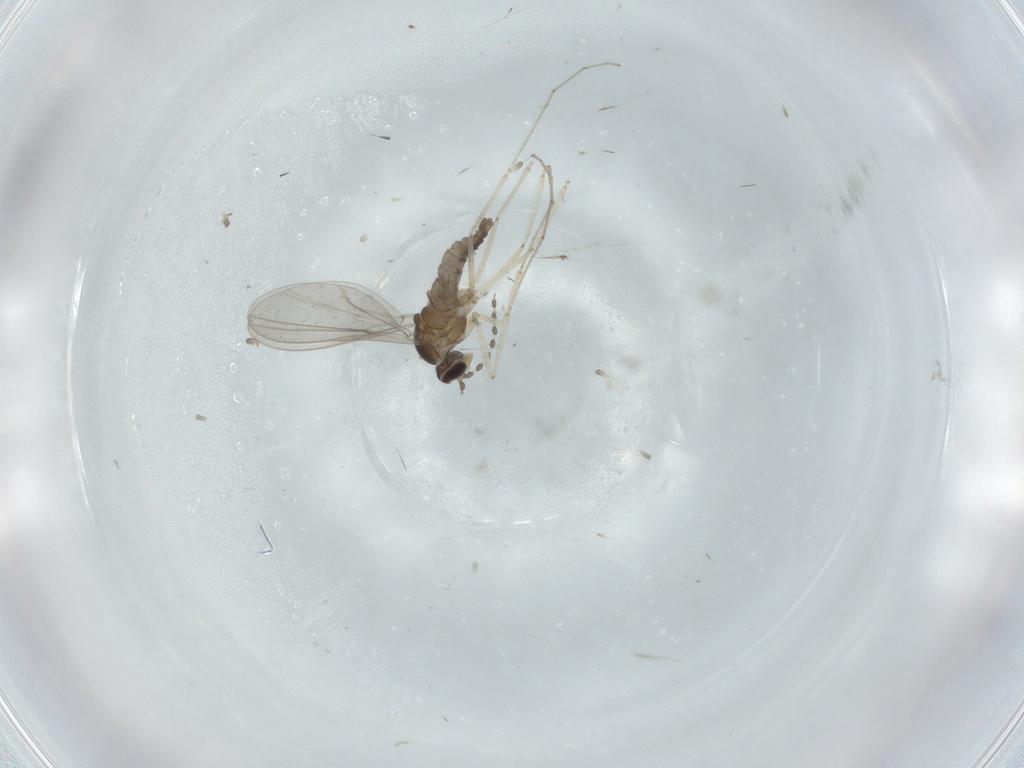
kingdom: Animalia
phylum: Arthropoda
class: Insecta
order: Diptera
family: Cecidomyiidae
